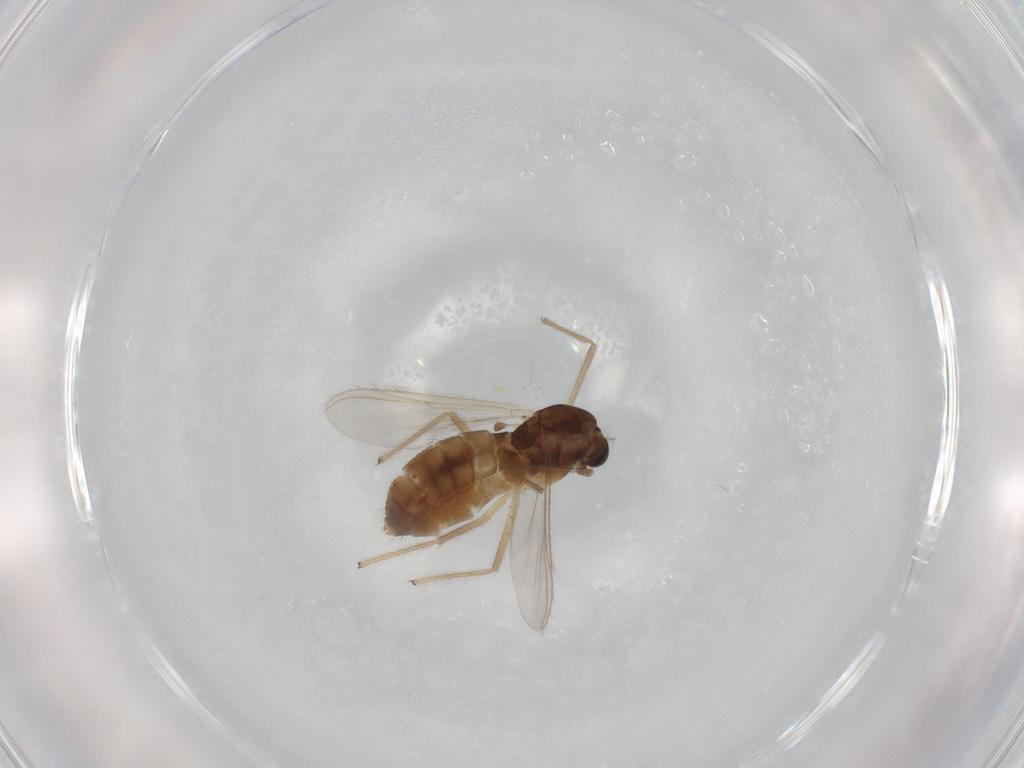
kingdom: Animalia
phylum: Arthropoda
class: Insecta
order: Diptera
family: Chironomidae
